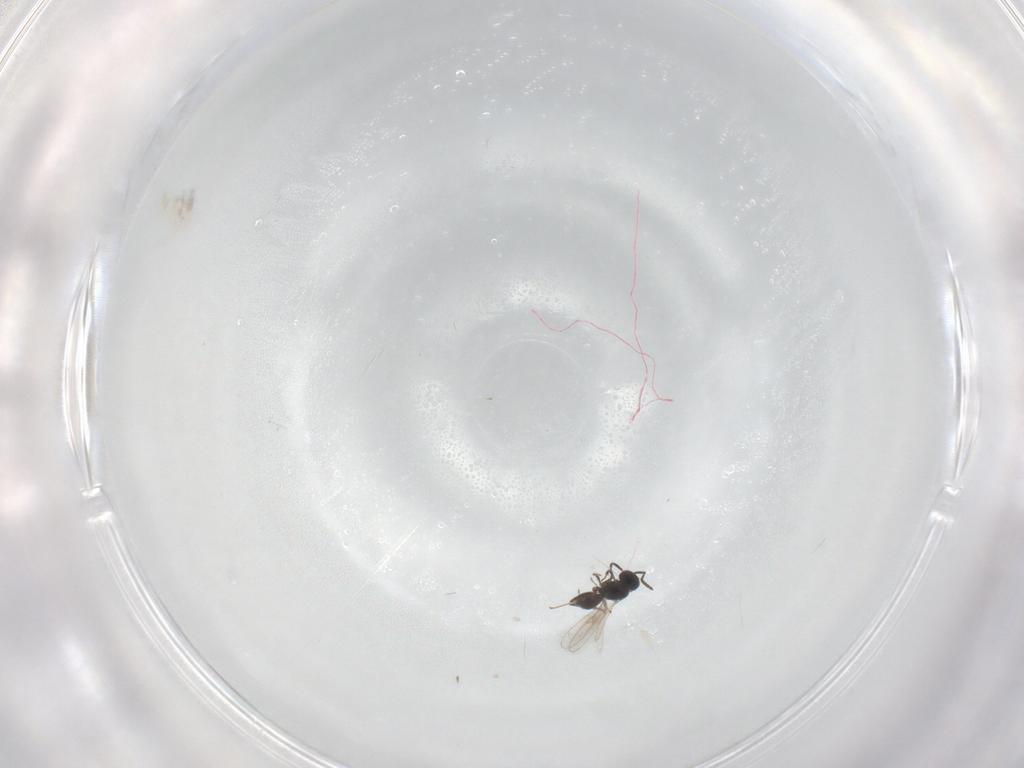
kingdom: Animalia
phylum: Arthropoda
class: Insecta
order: Hymenoptera
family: Scelionidae
